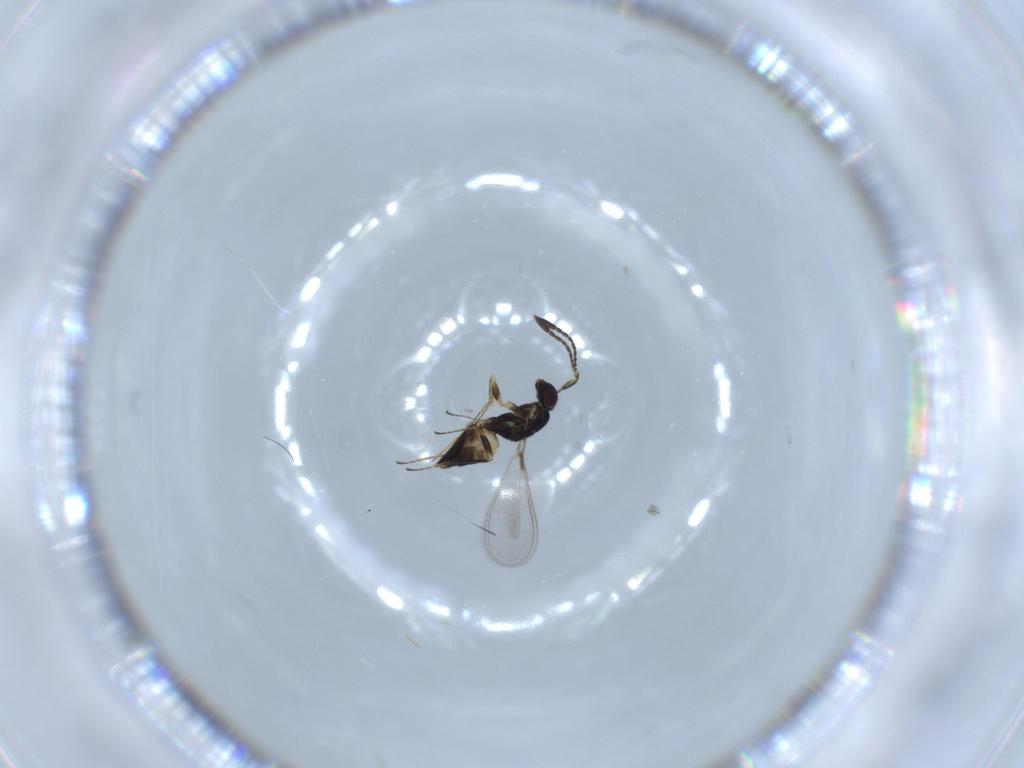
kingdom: Animalia
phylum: Arthropoda
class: Insecta
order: Hymenoptera
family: Mymaridae
